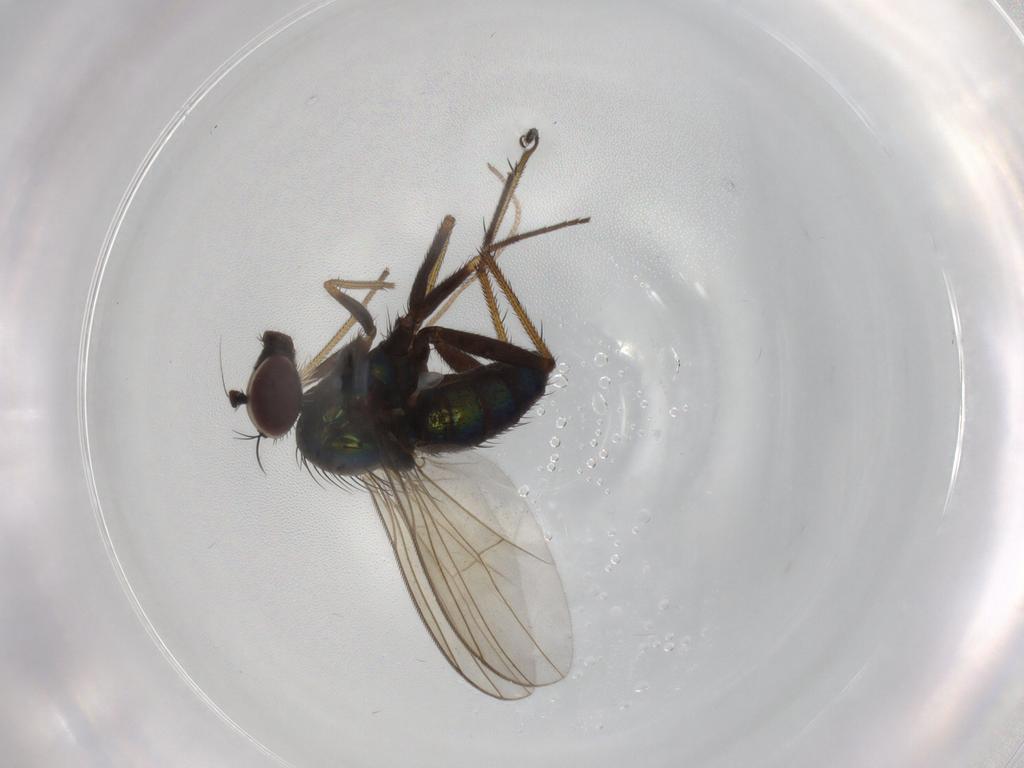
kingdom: Animalia
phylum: Arthropoda
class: Insecta
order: Diptera
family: Dolichopodidae
